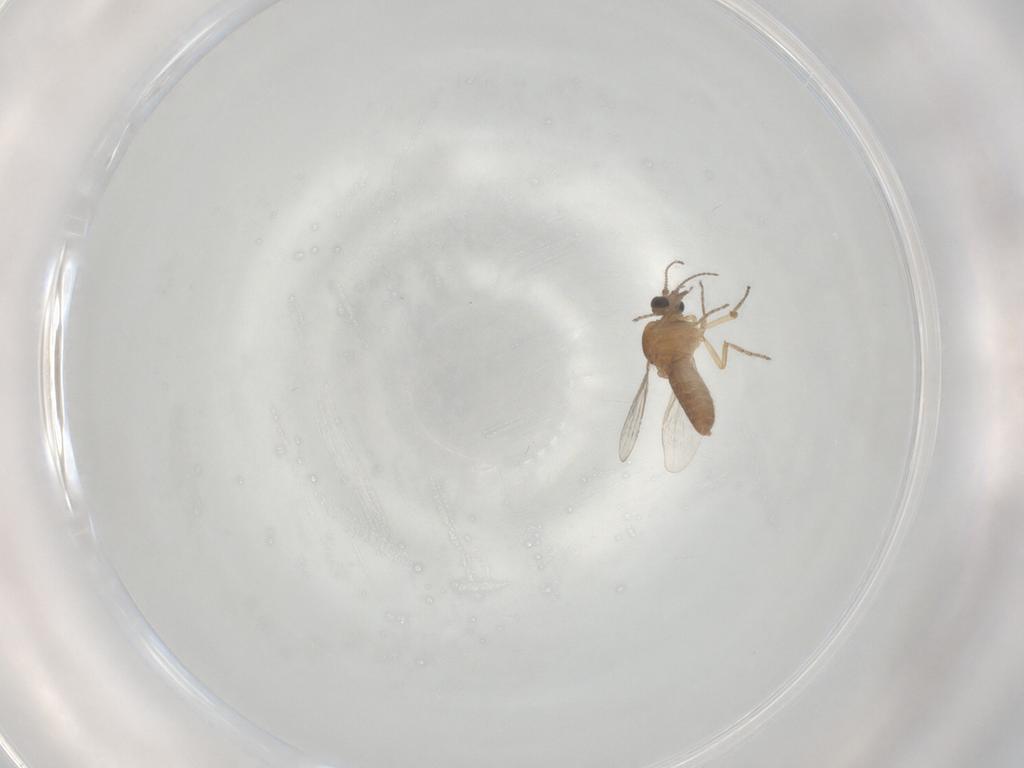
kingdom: Animalia
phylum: Arthropoda
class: Insecta
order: Diptera
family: Ceratopogonidae
